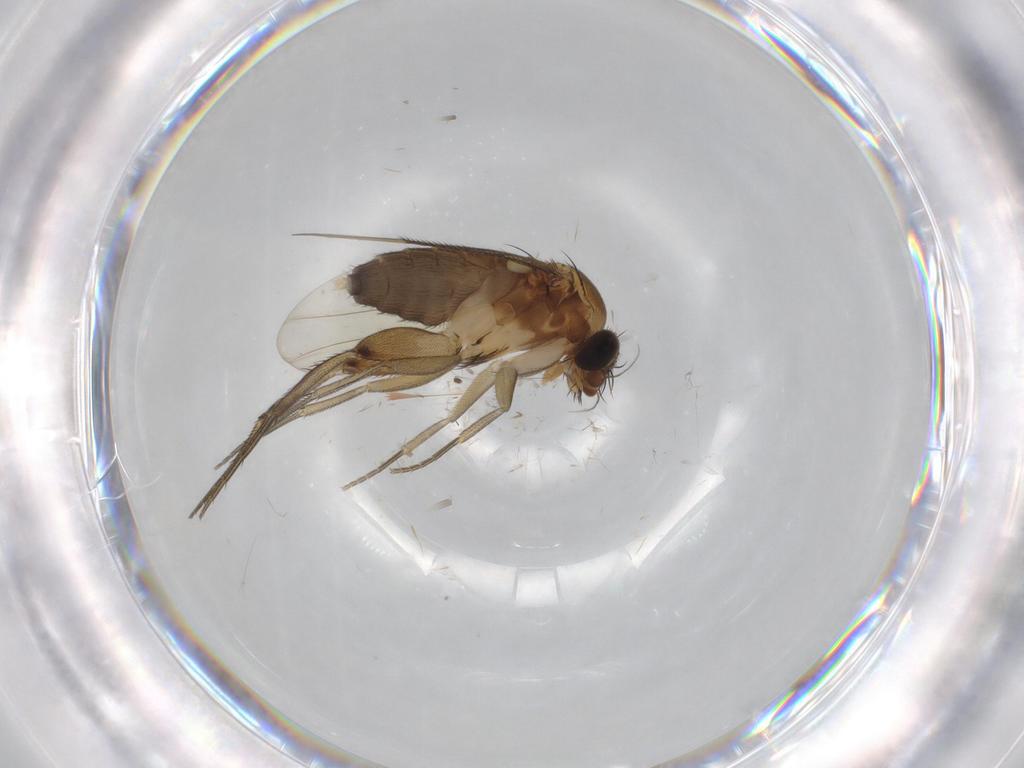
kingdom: Animalia
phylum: Arthropoda
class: Insecta
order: Diptera
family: Phoridae
